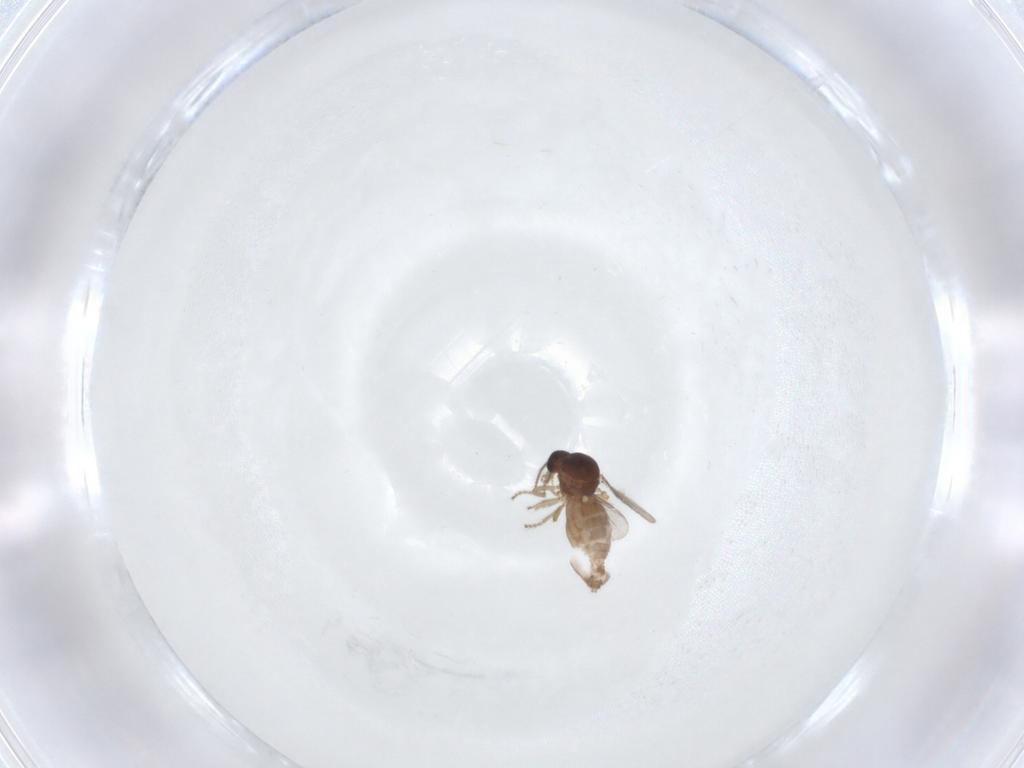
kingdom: Animalia
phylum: Arthropoda
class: Insecta
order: Diptera
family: Ceratopogonidae
